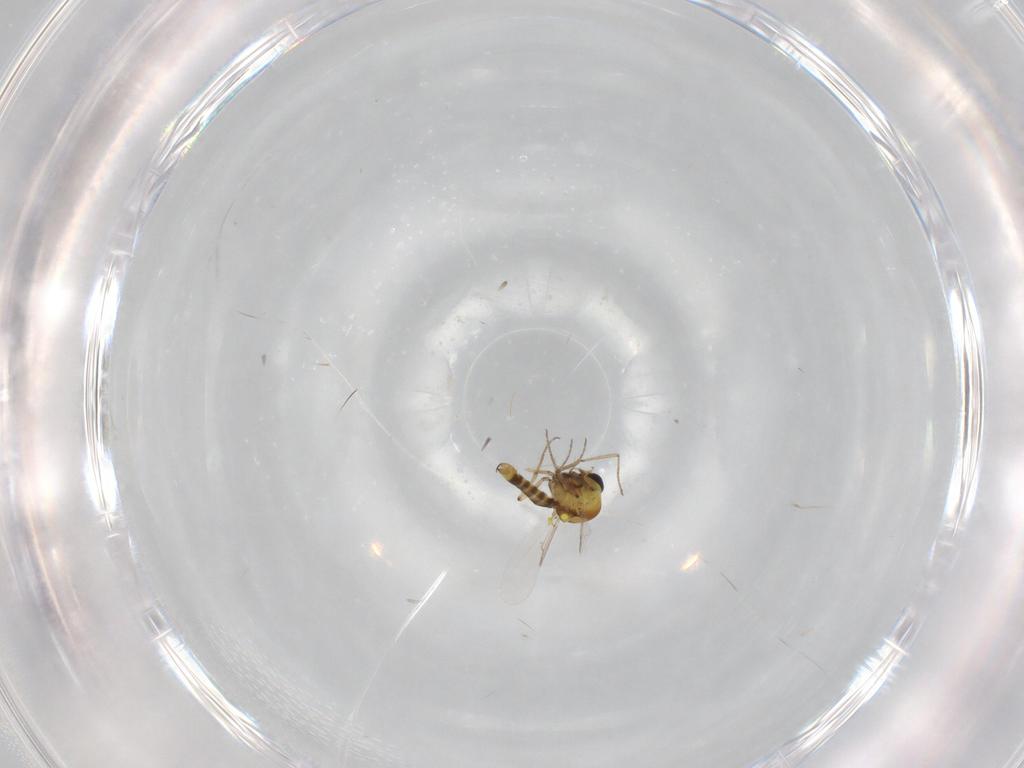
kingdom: Animalia
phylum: Arthropoda
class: Insecta
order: Diptera
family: Ceratopogonidae
